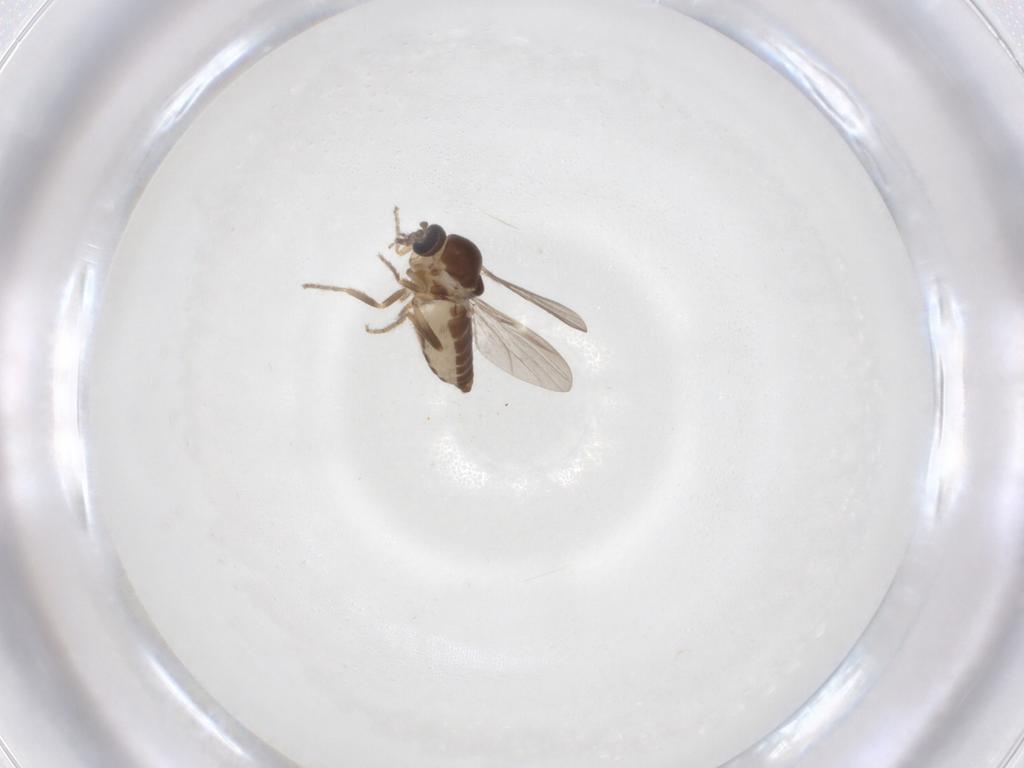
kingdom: Animalia
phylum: Arthropoda
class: Insecta
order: Diptera
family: Ceratopogonidae
